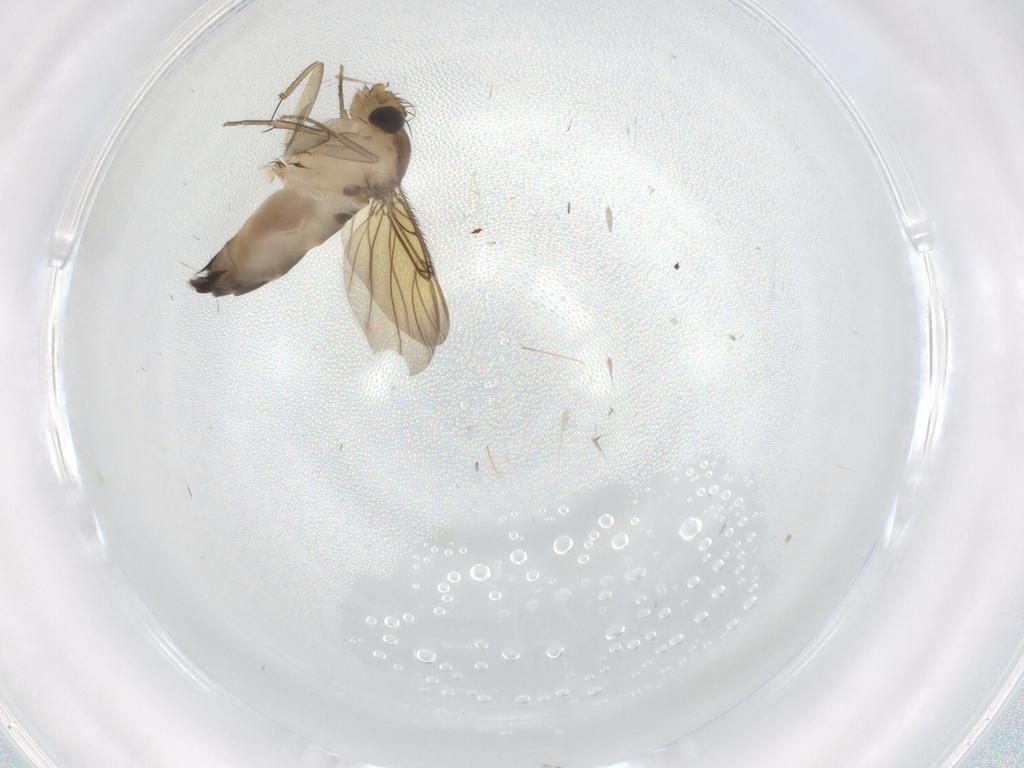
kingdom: Animalia
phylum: Arthropoda
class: Insecta
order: Diptera
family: Phoridae
